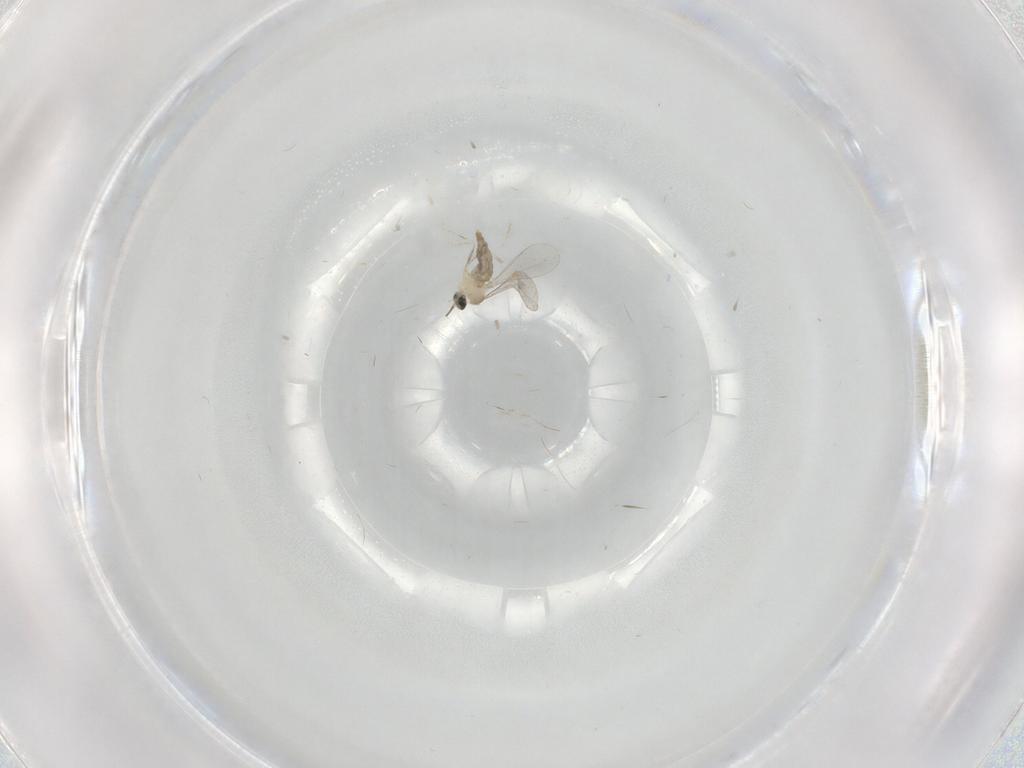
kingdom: Animalia
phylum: Arthropoda
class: Insecta
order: Diptera
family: Cecidomyiidae
